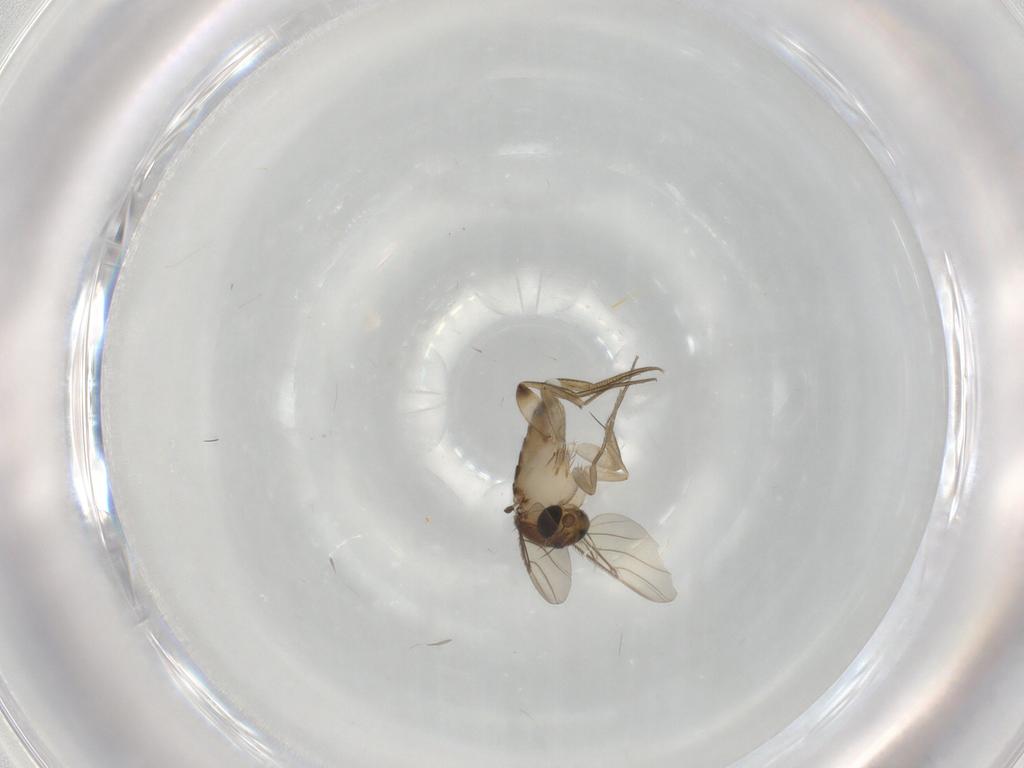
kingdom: Animalia
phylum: Arthropoda
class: Insecta
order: Diptera
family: Phoridae
